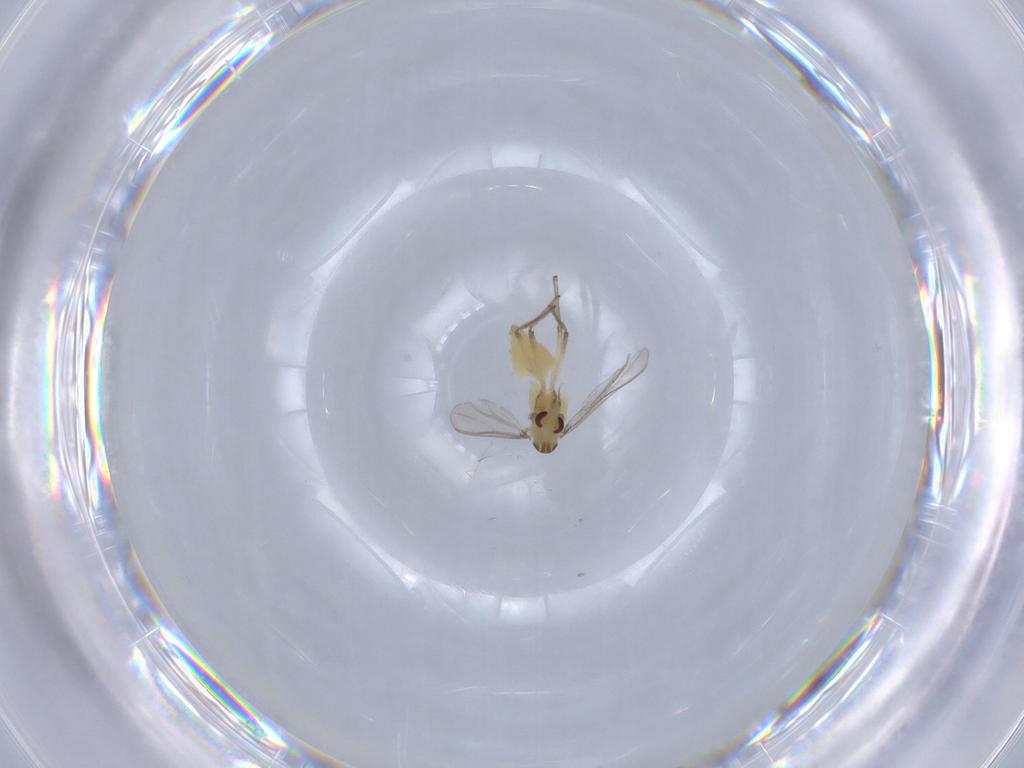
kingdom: Animalia
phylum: Arthropoda
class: Insecta
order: Diptera
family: Chironomidae
